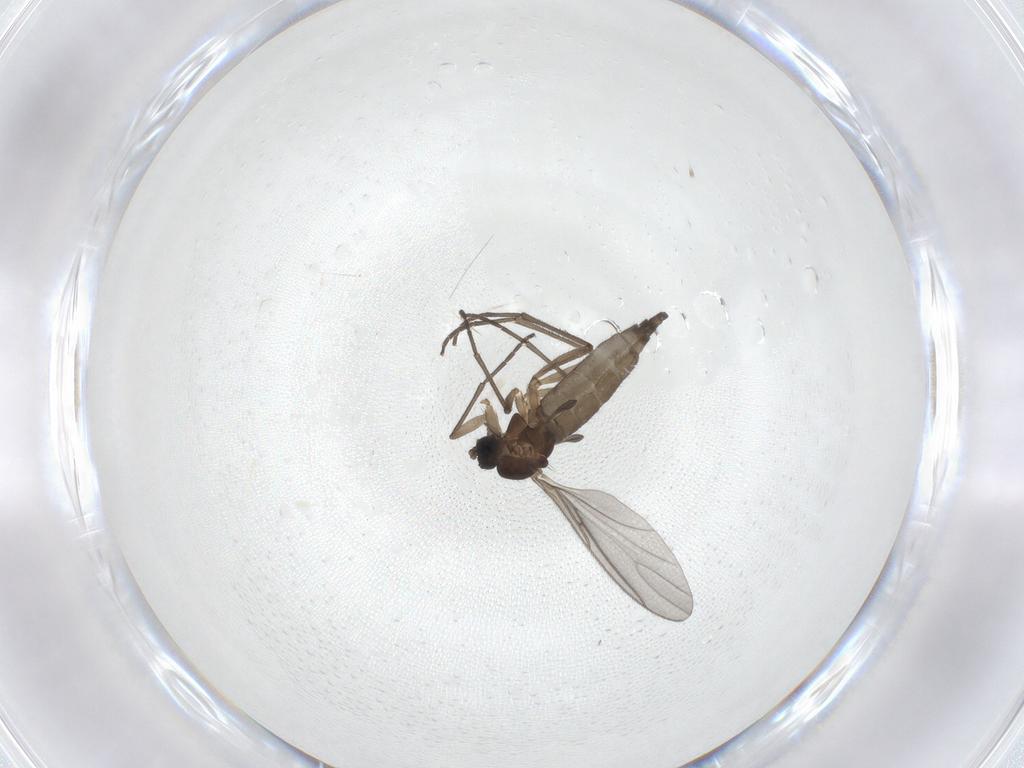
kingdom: Animalia
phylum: Arthropoda
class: Insecta
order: Diptera
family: Sciaridae
